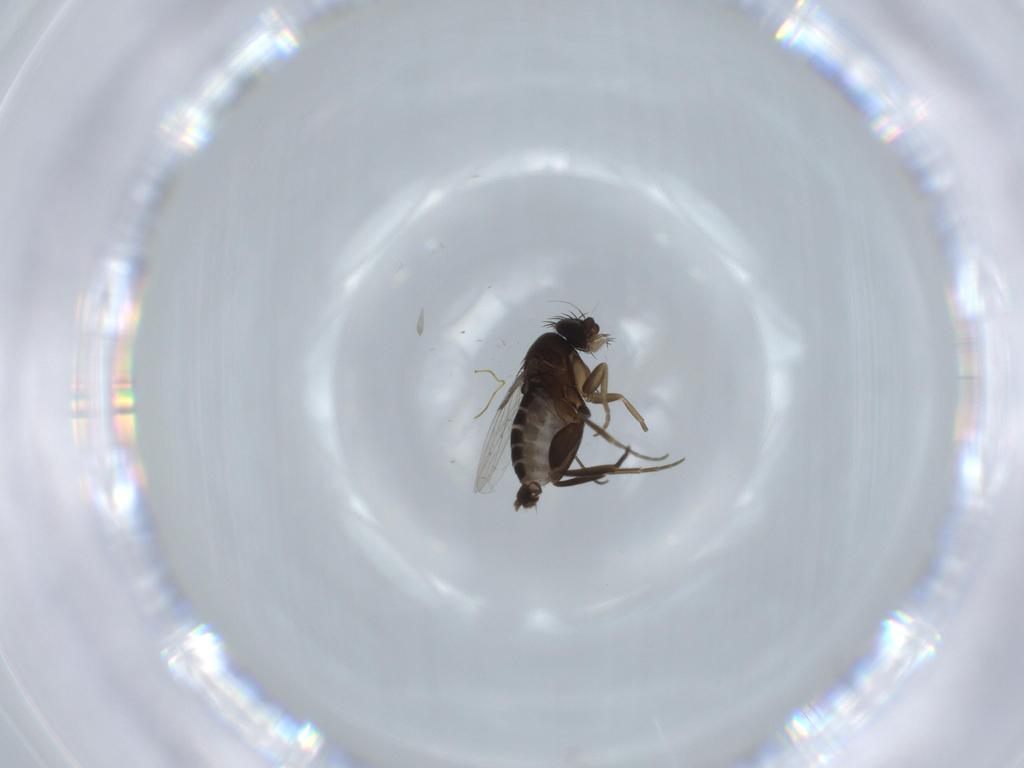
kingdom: Animalia
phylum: Arthropoda
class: Insecta
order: Diptera
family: Phoridae
